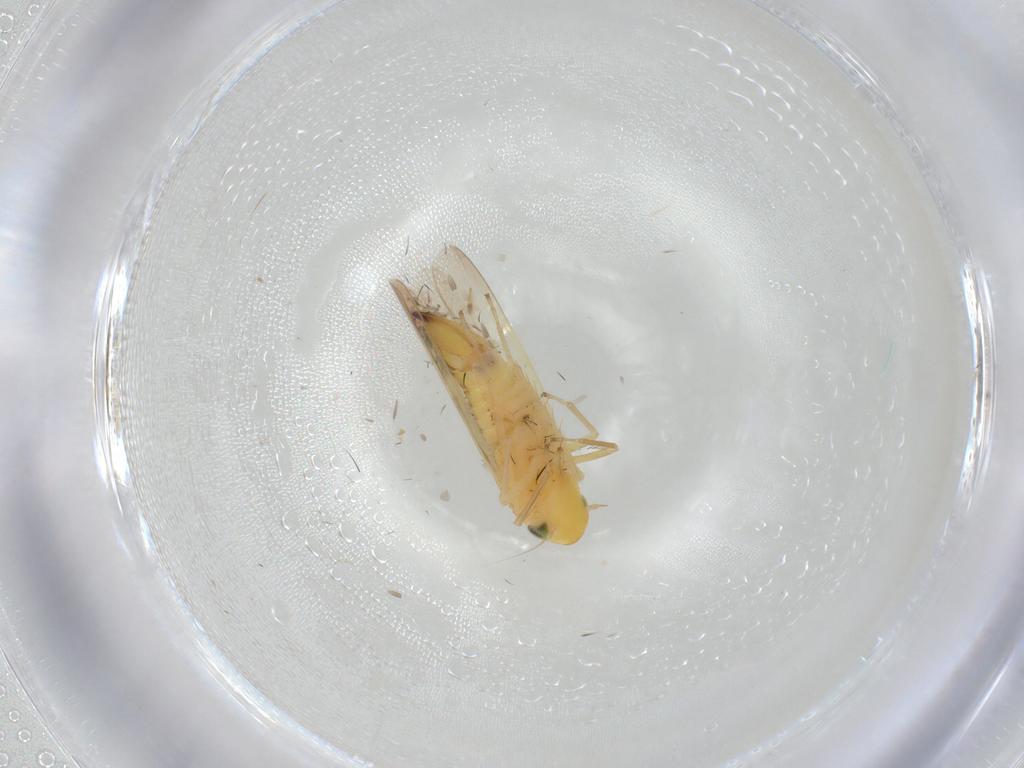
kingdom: Animalia
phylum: Arthropoda
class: Insecta
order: Hemiptera
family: Cicadellidae
